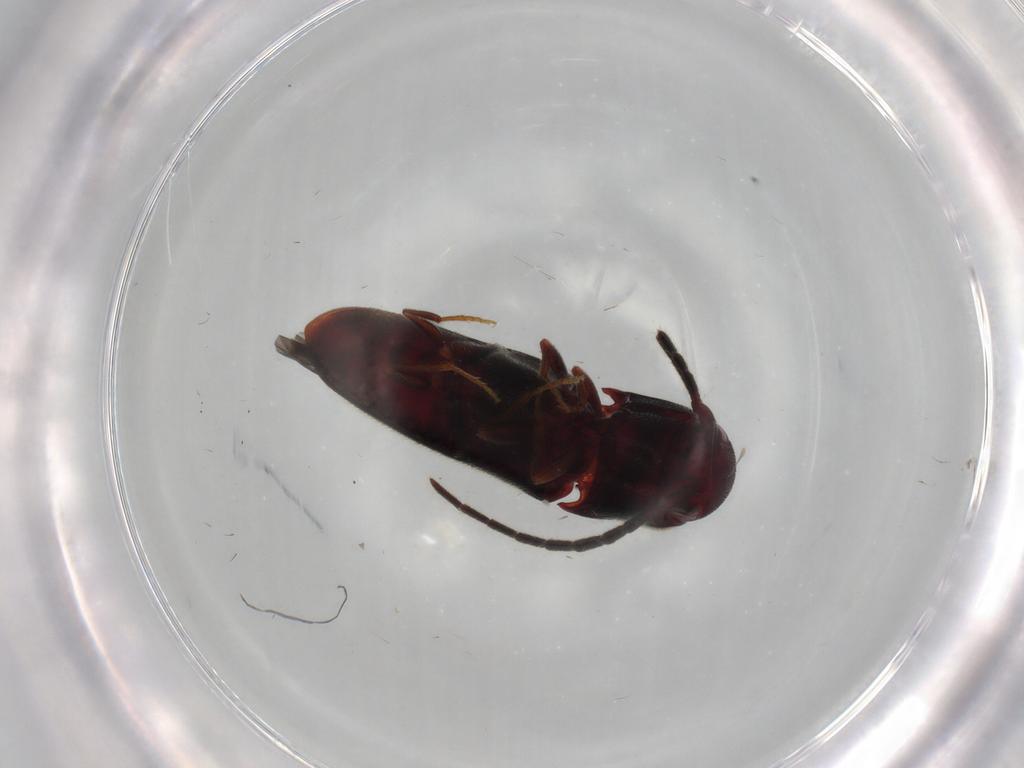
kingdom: Animalia
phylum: Arthropoda
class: Insecta
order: Coleoptera
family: Eucnemidae
